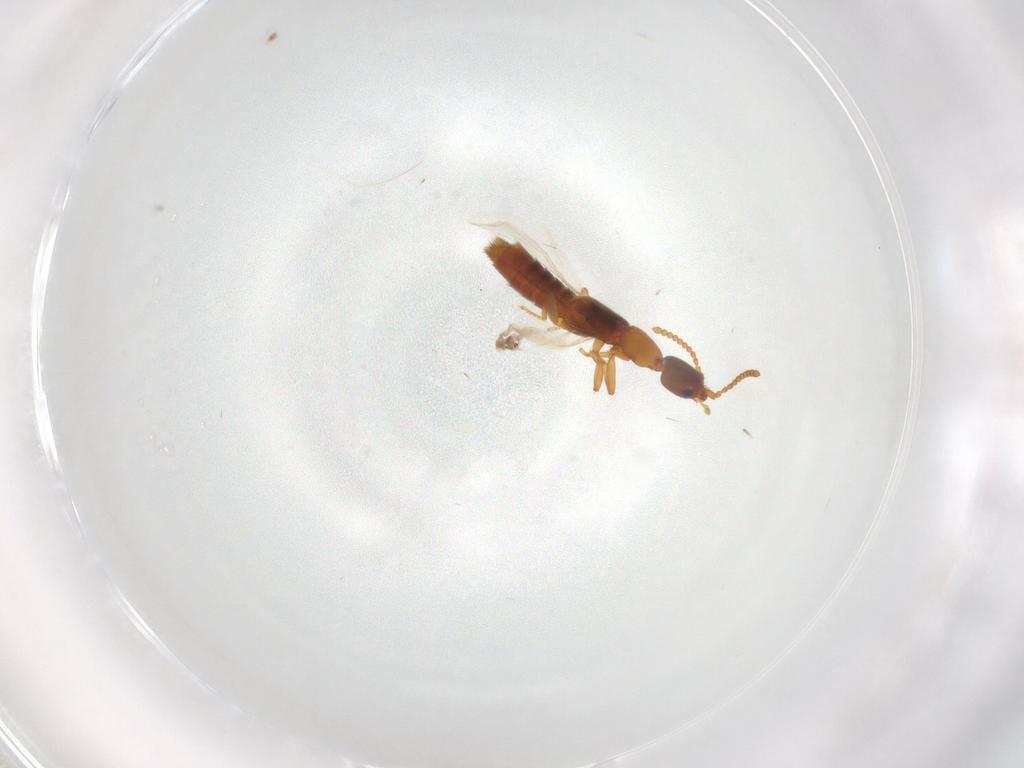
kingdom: Animalia
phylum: Arthropoda
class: Insecta
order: Coleoptera
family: Staphylinidae
